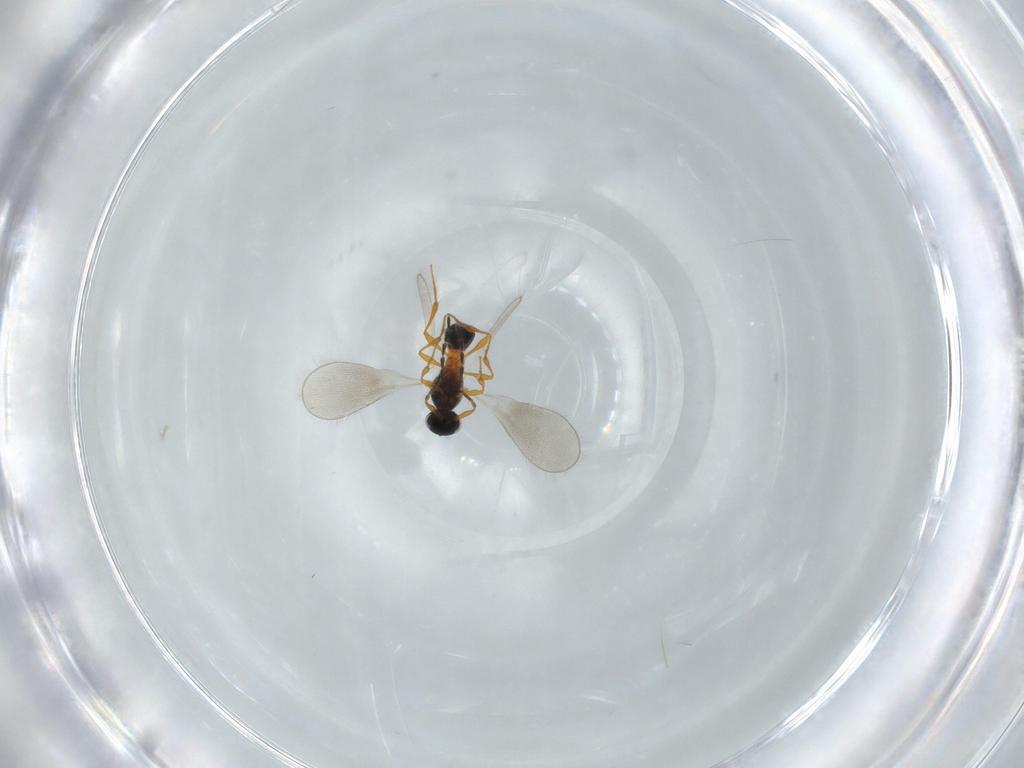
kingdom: Animalia
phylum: Arthropoda
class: Insecta
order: Hymenoptera
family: Platygastridae
